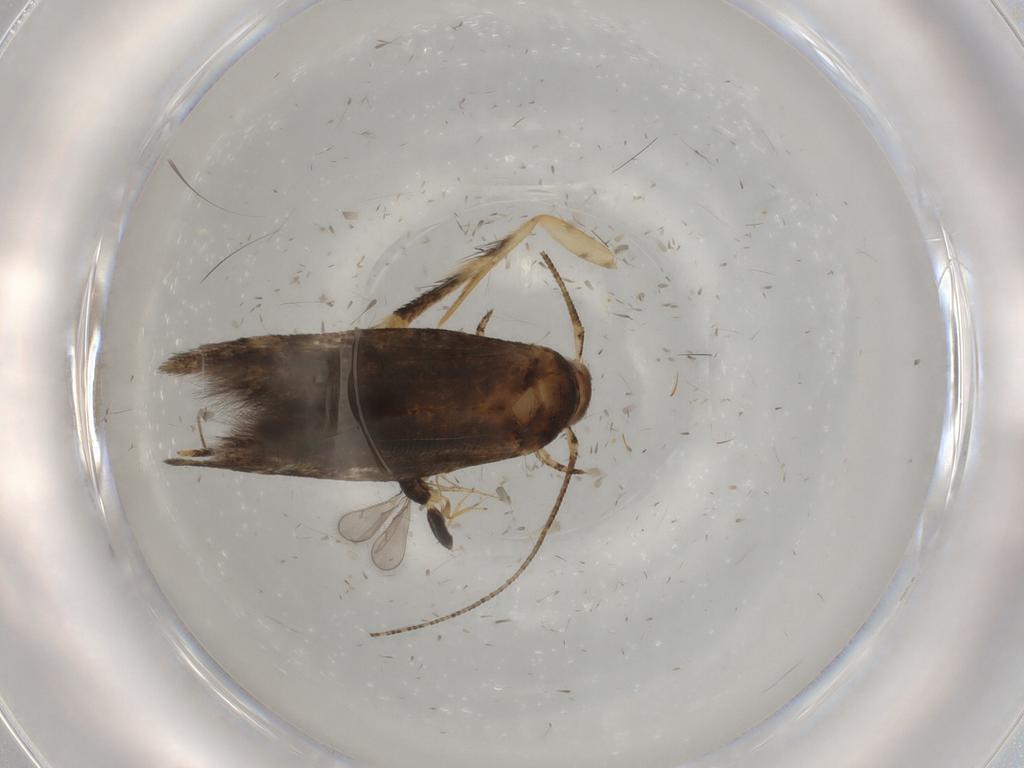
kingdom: Animalia
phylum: Arthropoda
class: Insecta
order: Lepidoptera
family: Momphidae
